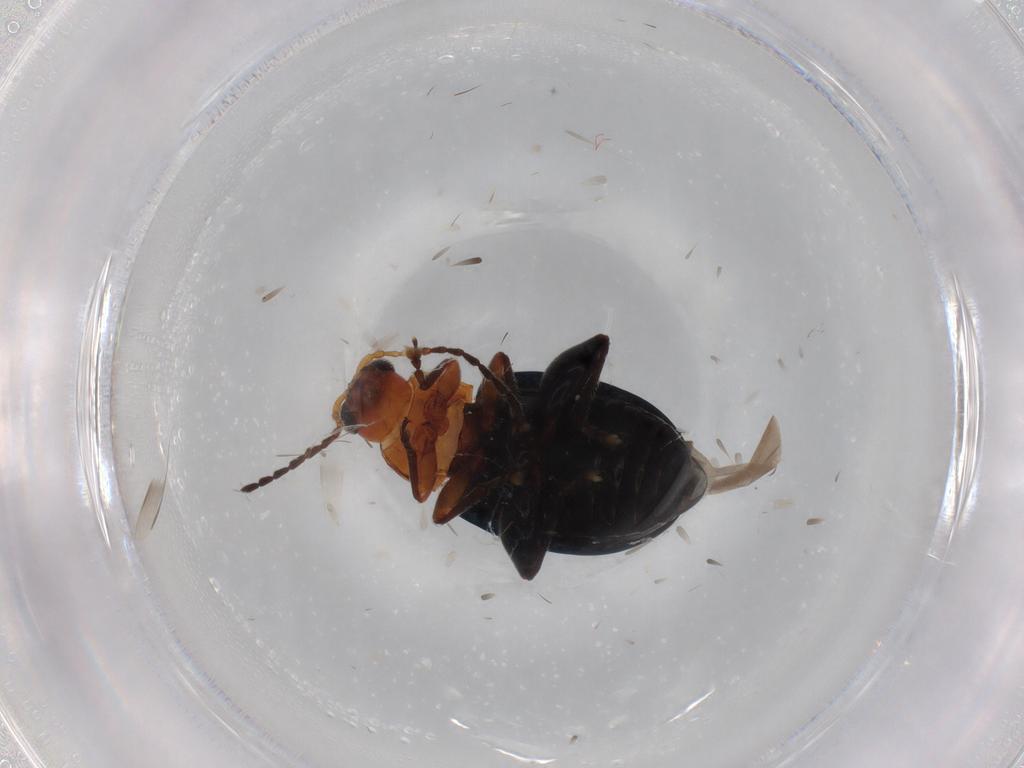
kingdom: Animalia
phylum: Arthropoda
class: Insecta
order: Coleoptera
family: Chrysomelidae
